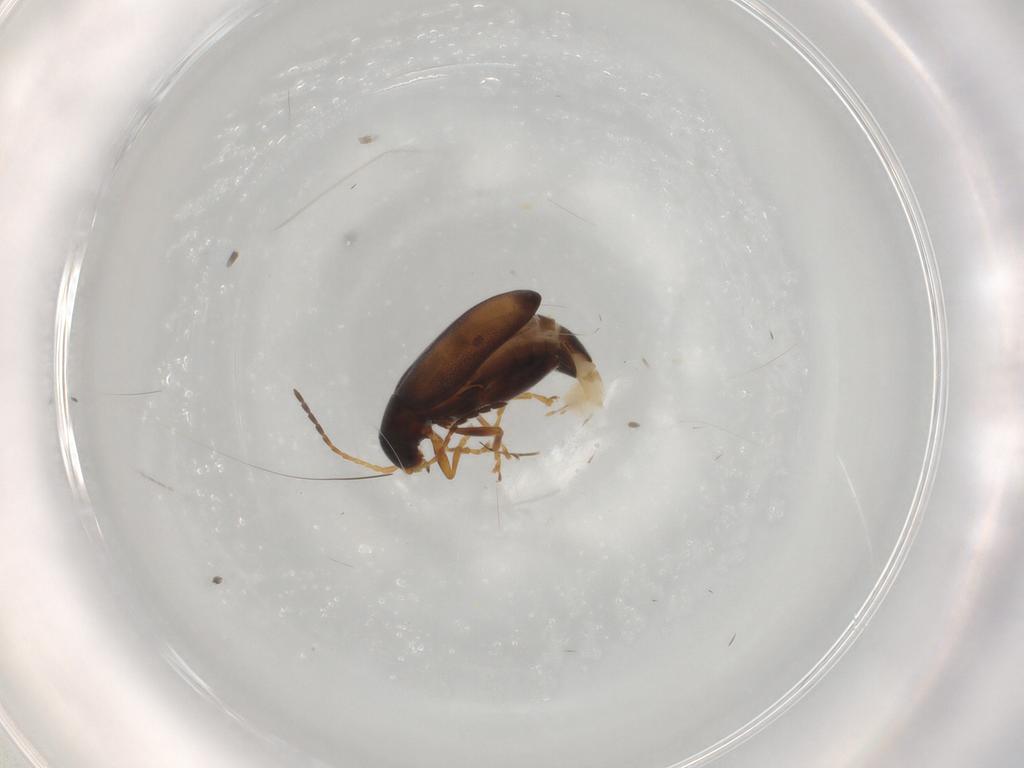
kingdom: Animalia
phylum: Arthropoda
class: Insecta
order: Coleoptera
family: Chrysomelidae
